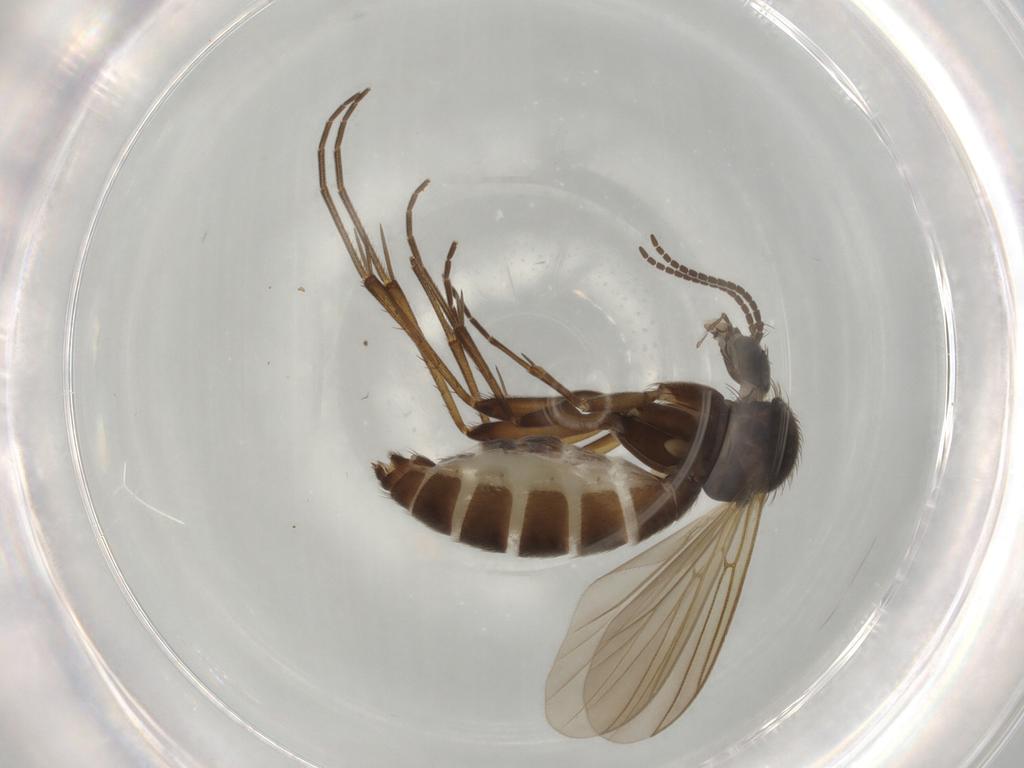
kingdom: Animalia
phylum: Arthropoda
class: Insecta
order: Diptera
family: Mycetophilidae
